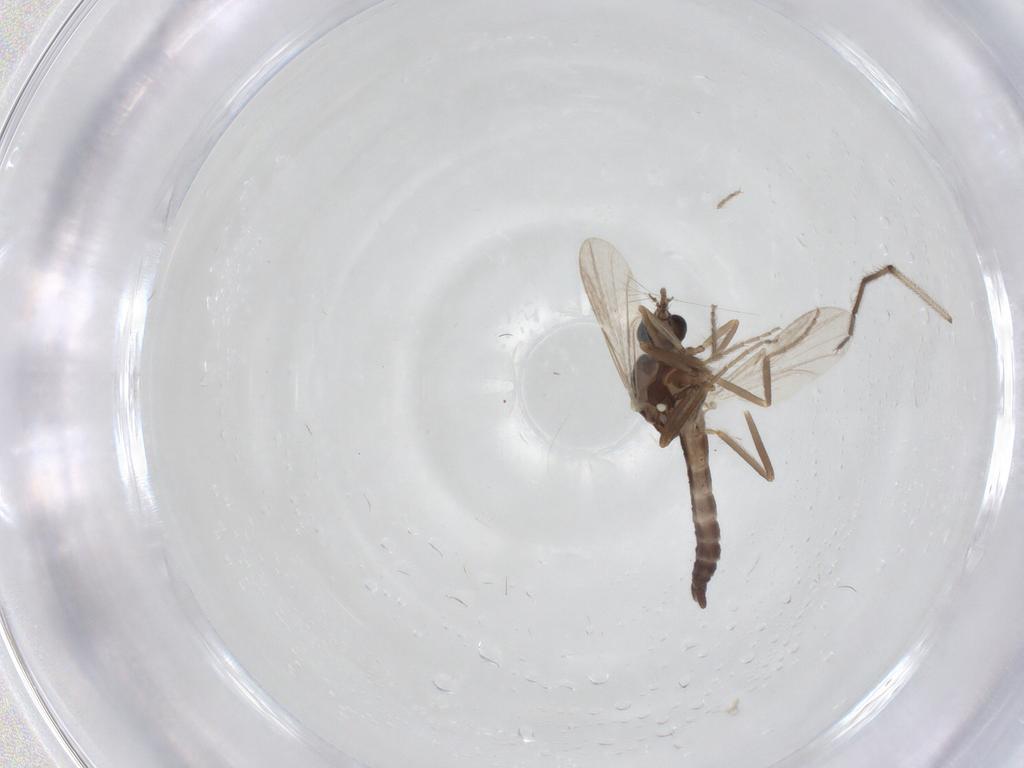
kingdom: Animalia
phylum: Arthropoda
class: Insecta
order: Diptera
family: Ceratopogonidae
